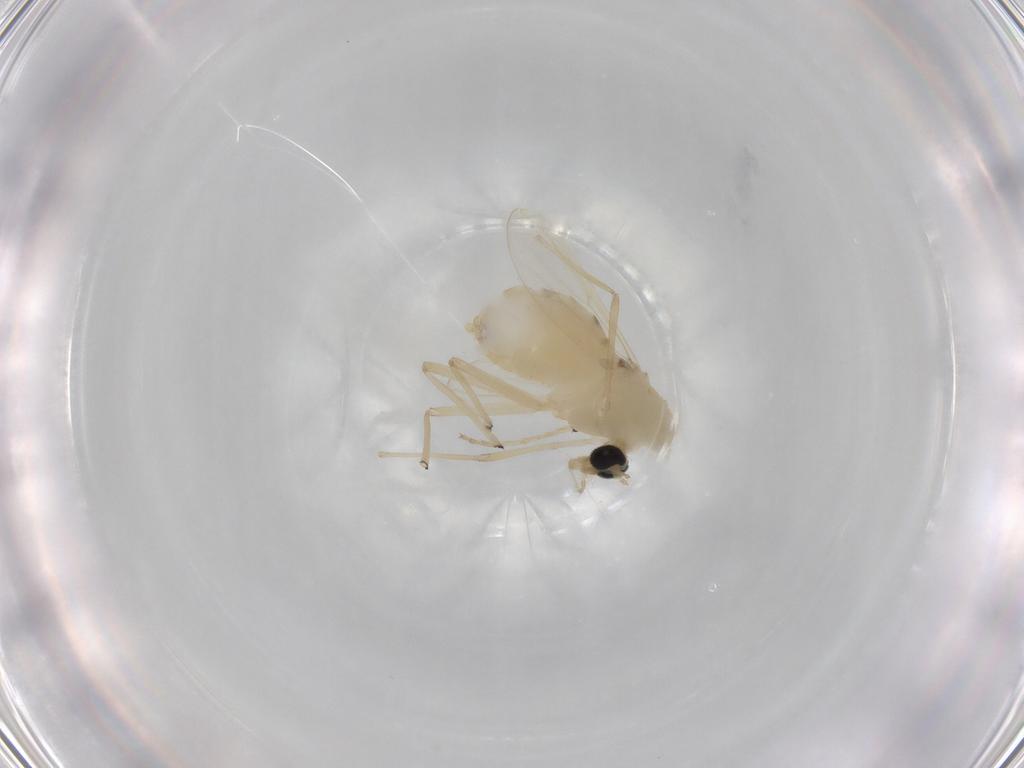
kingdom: Animalia
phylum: Arthropoda
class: Insecta
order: Diptera
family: Chironomidae
